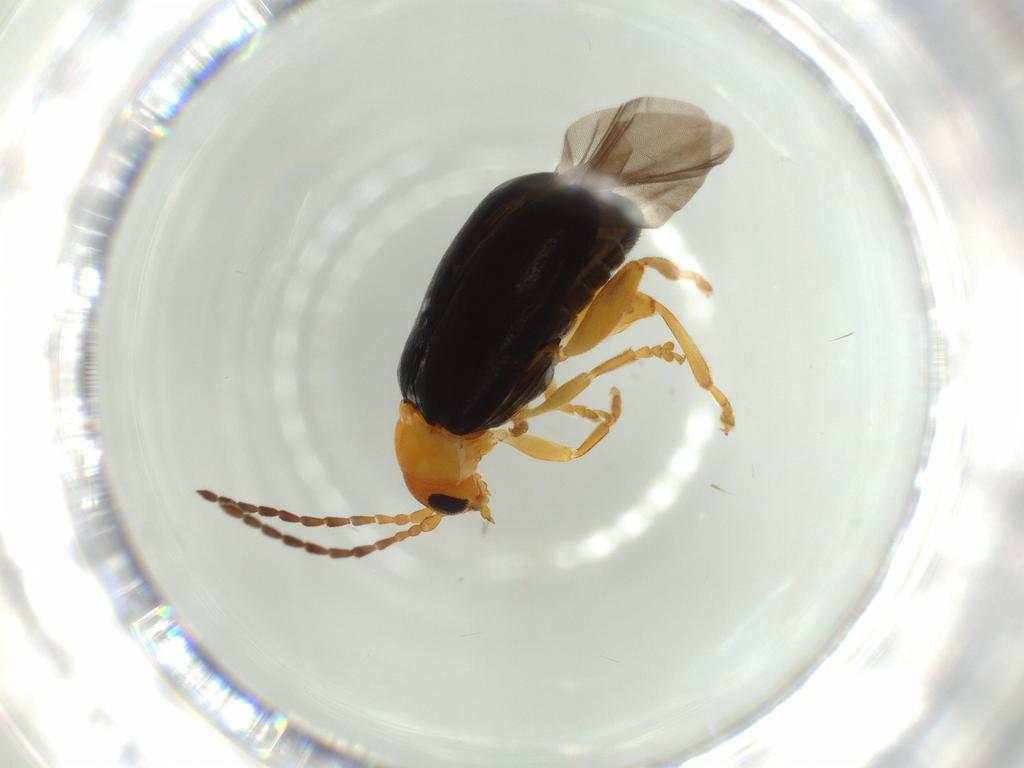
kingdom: Animalia
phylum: Arthropoda
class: Insecta
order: Coleoptera
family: Chrysomelidae
